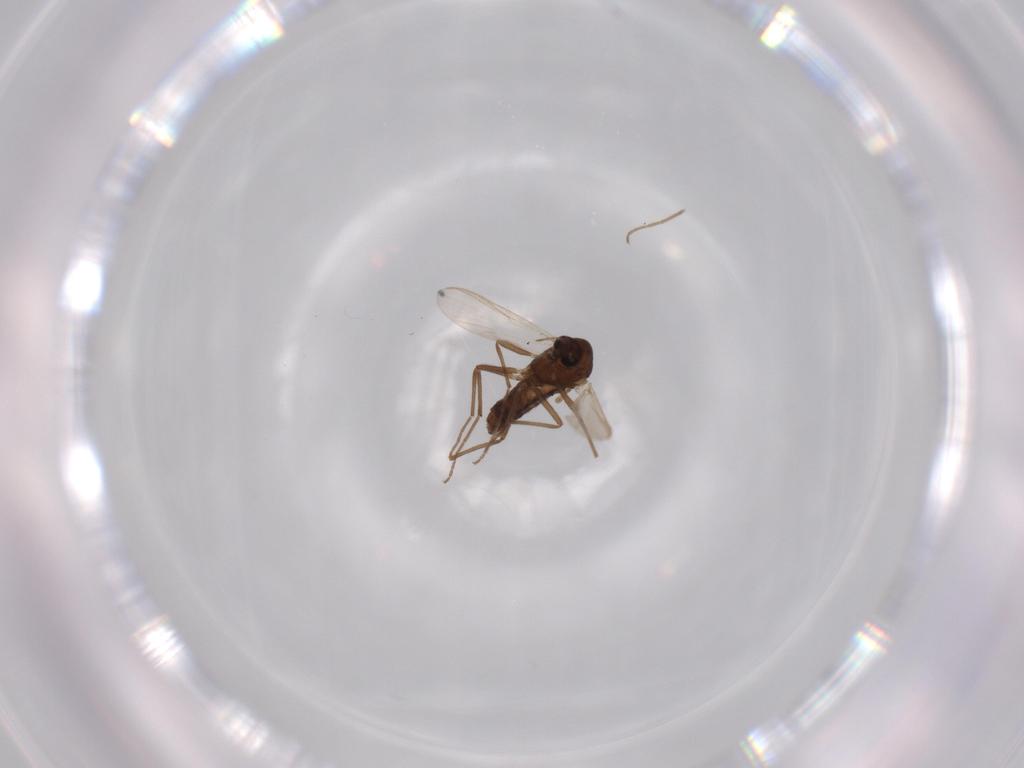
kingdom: Animalia
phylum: Arthropoda
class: Insecta
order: Diptera
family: Chironomidae
